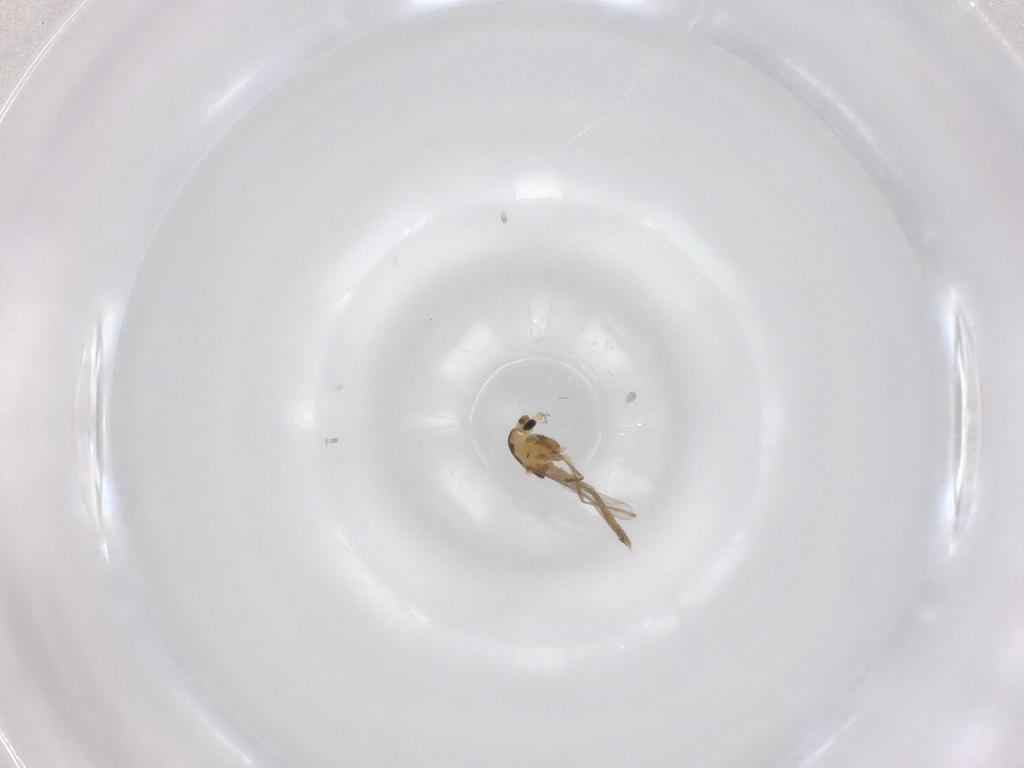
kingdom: Animalia
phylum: Arthropoda
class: Insecta
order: Diptera
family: Chironomidae
